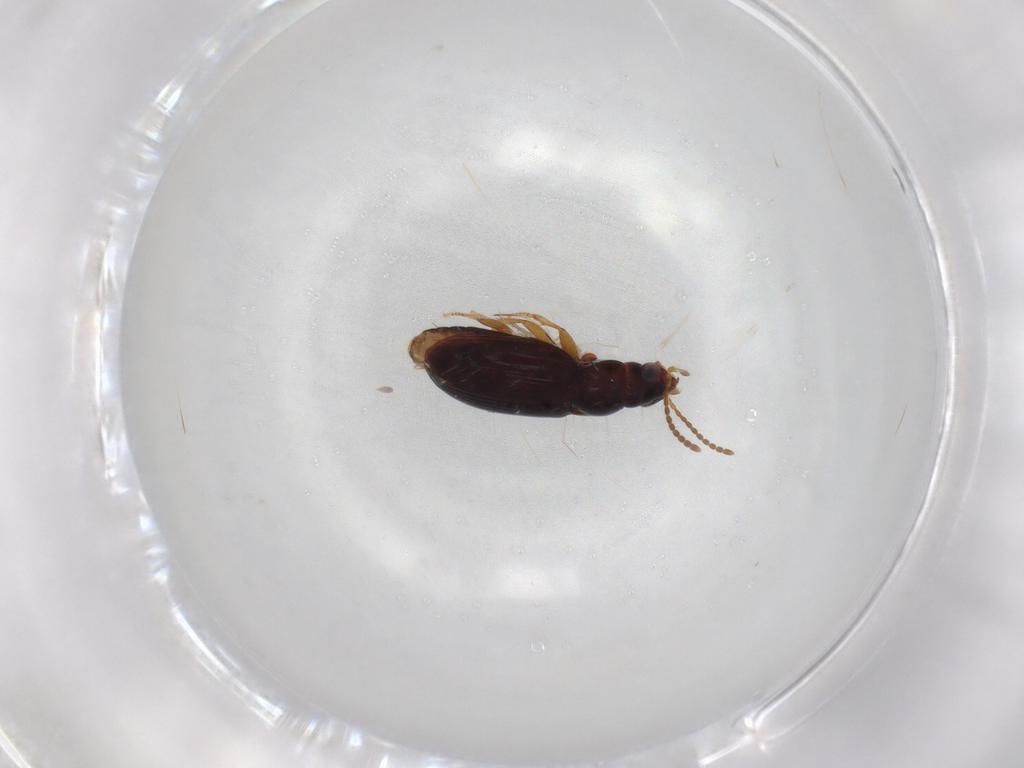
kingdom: Animalia
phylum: Arthropoda
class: Insecta
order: Coleoptera
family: Carabidae
